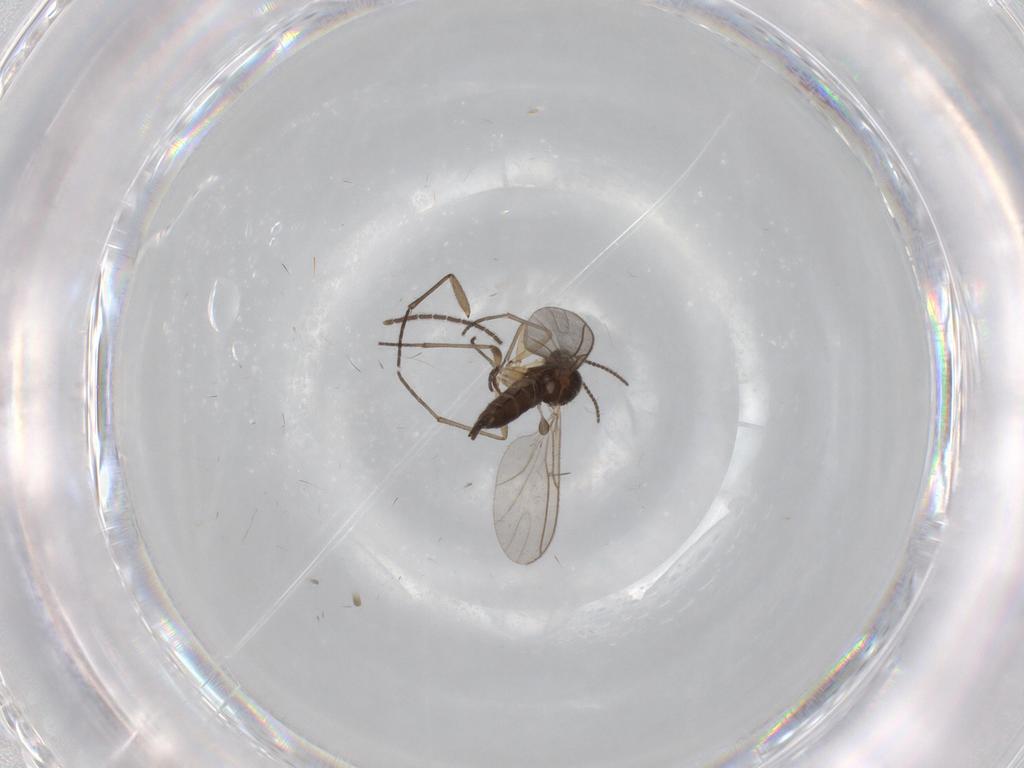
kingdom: Animalia
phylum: Arthropoda
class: Insecta
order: Diptera
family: Sciaridae
